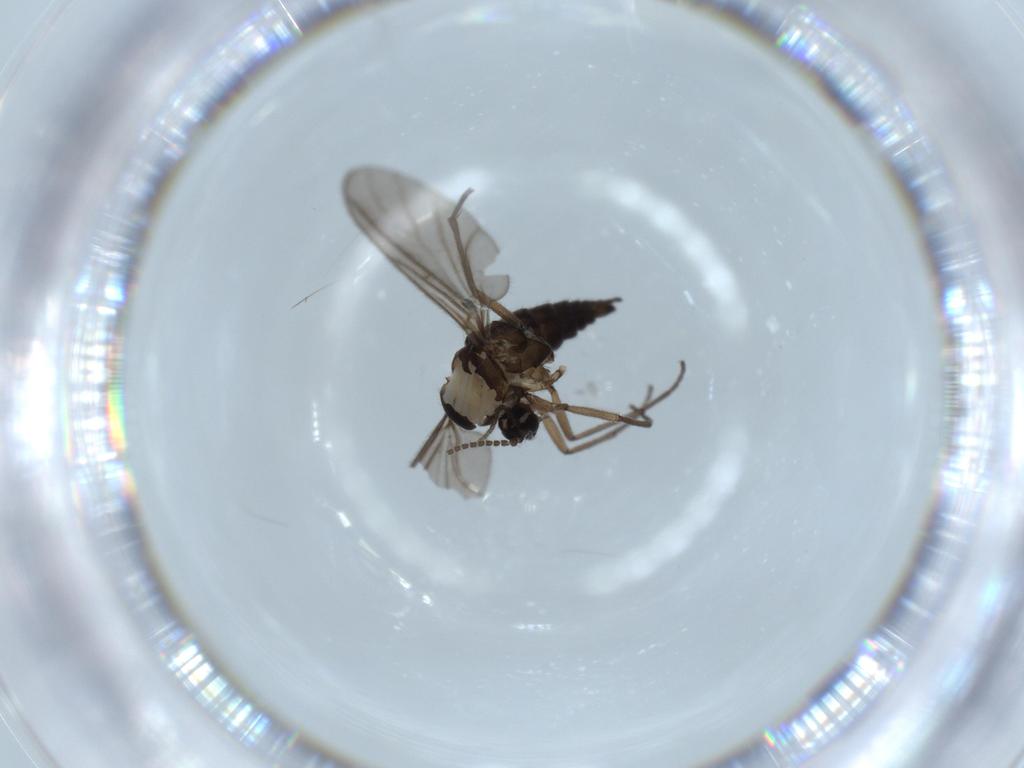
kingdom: Animalia
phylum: Arthropoda
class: Insecta
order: Diptera
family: Sciaridae
